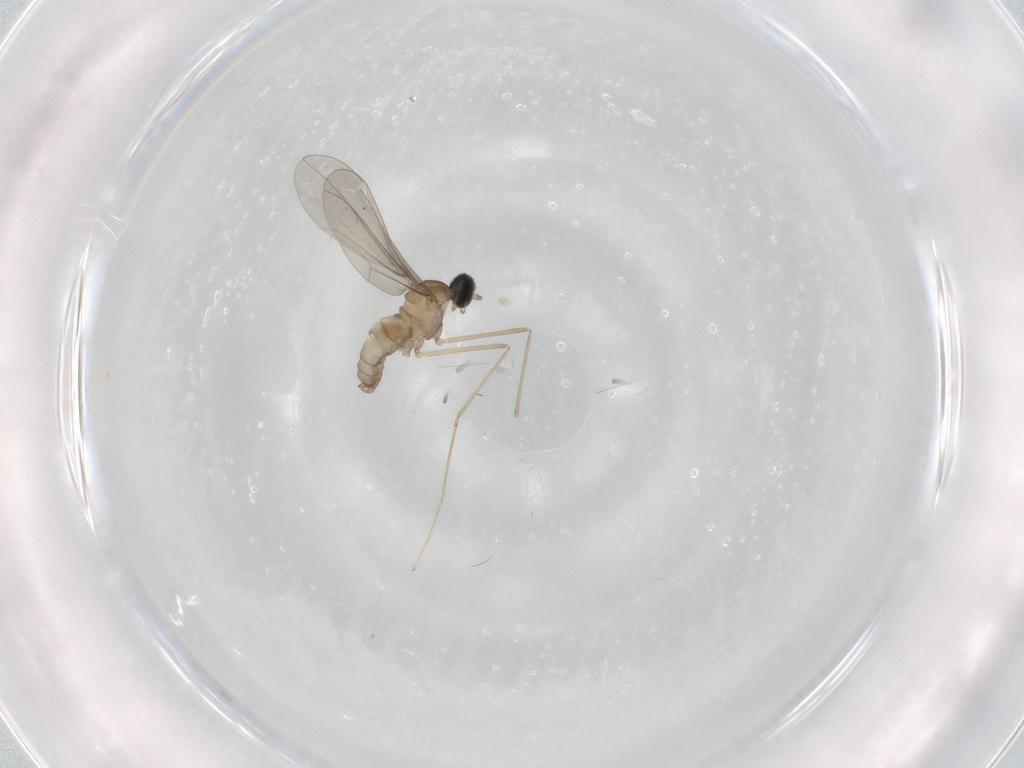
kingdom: Animalia
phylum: Arthropoda
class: Insecta
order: Diptera
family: Cecidomyiidae
